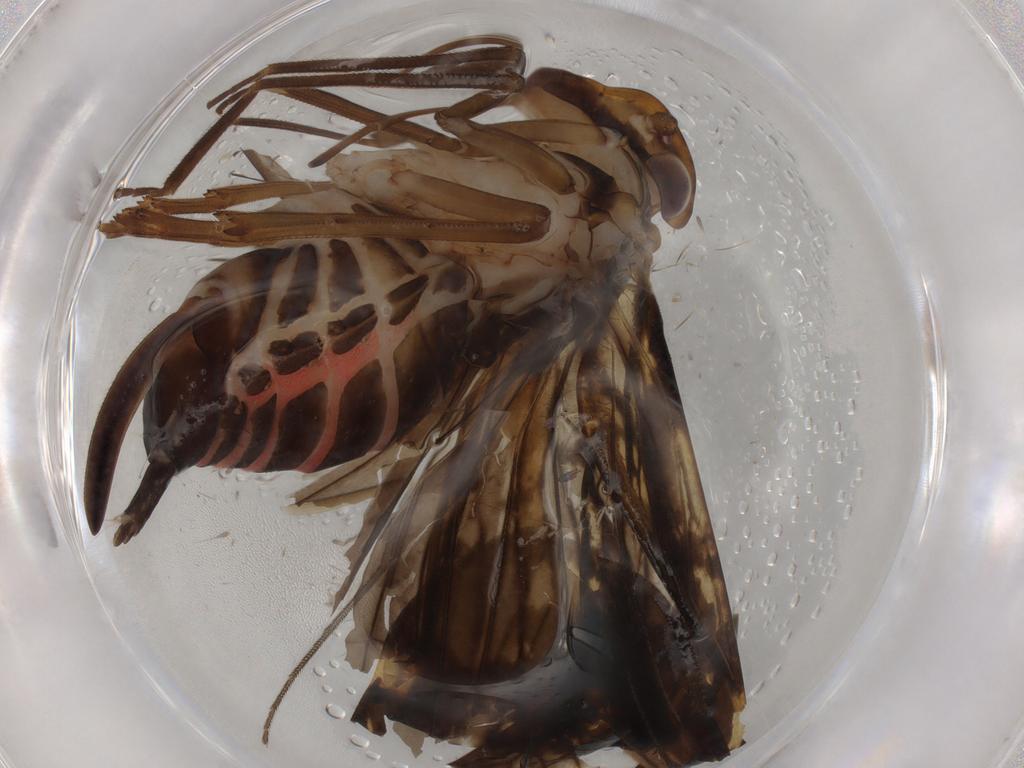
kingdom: Animalia
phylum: Arthropoda
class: Insecta
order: Hemiptera
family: Cixiidae
